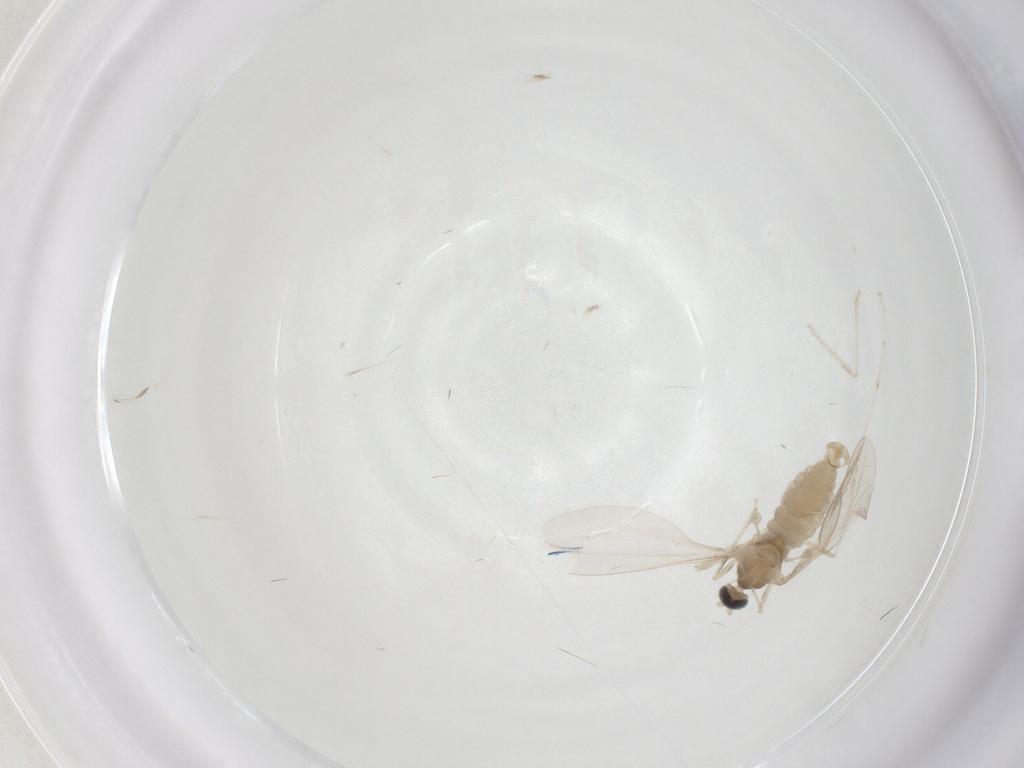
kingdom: Animalia
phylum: Arthropoda
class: Insecta
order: Diptera
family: Cecidomyiidae
